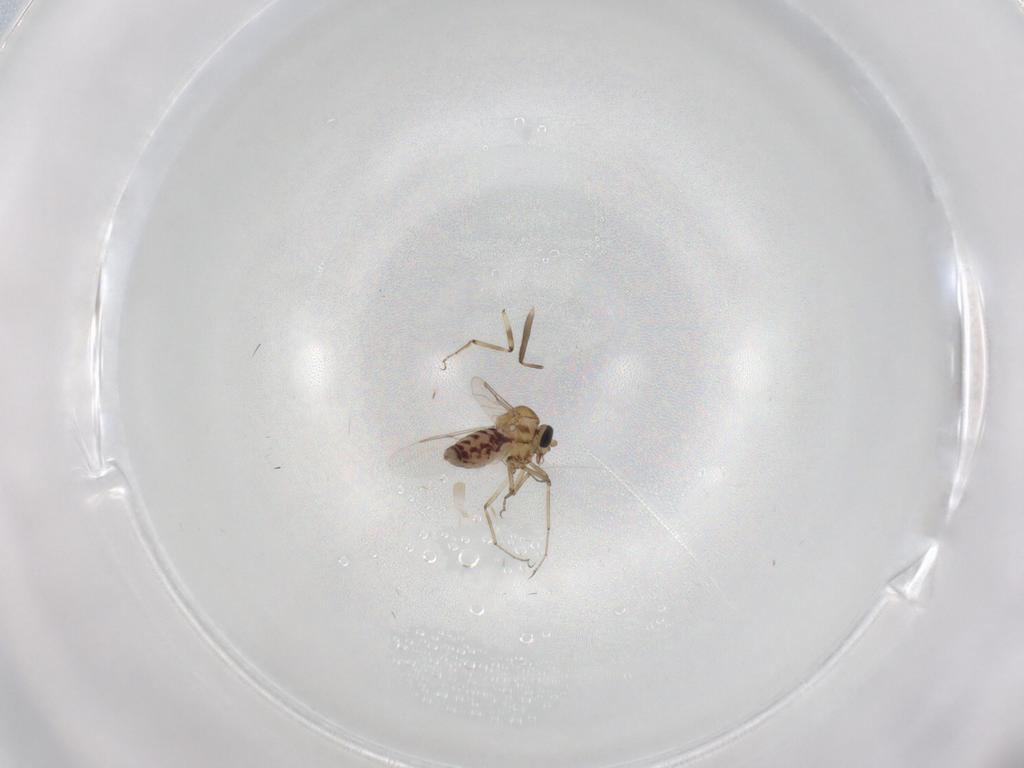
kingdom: Animalia
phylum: Arthropoda
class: Insecta
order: Diptera
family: Chironomidae
